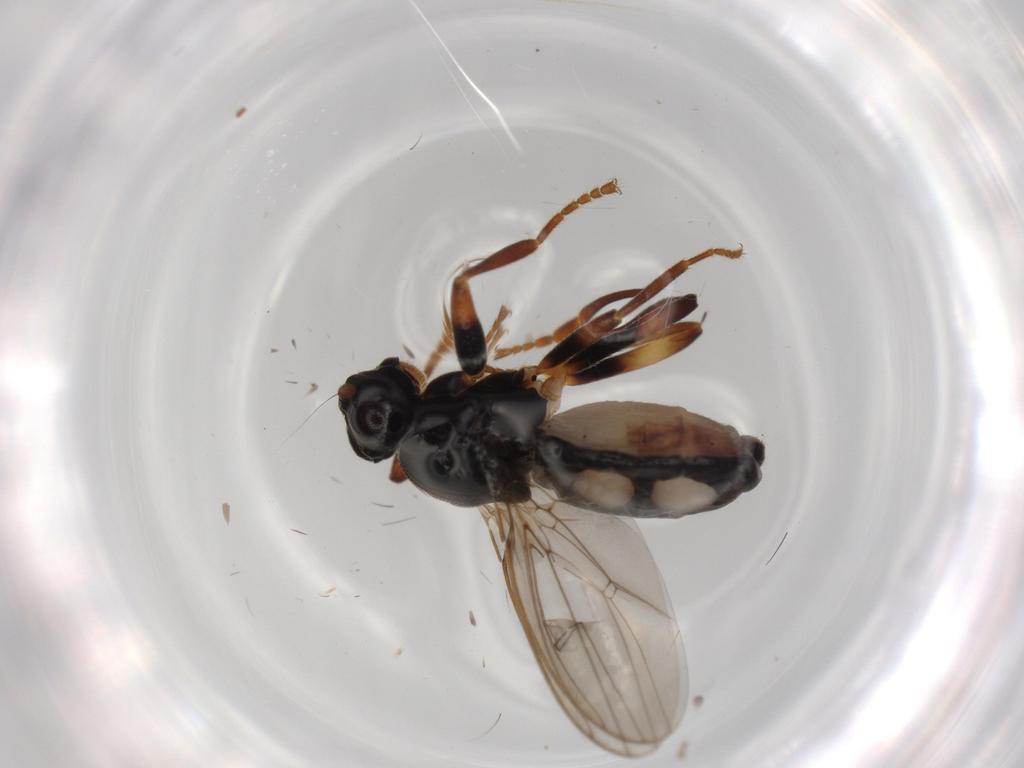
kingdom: Animalia
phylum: Arthropoda
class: Insecta
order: Diptera
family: Sphaeroceridae
